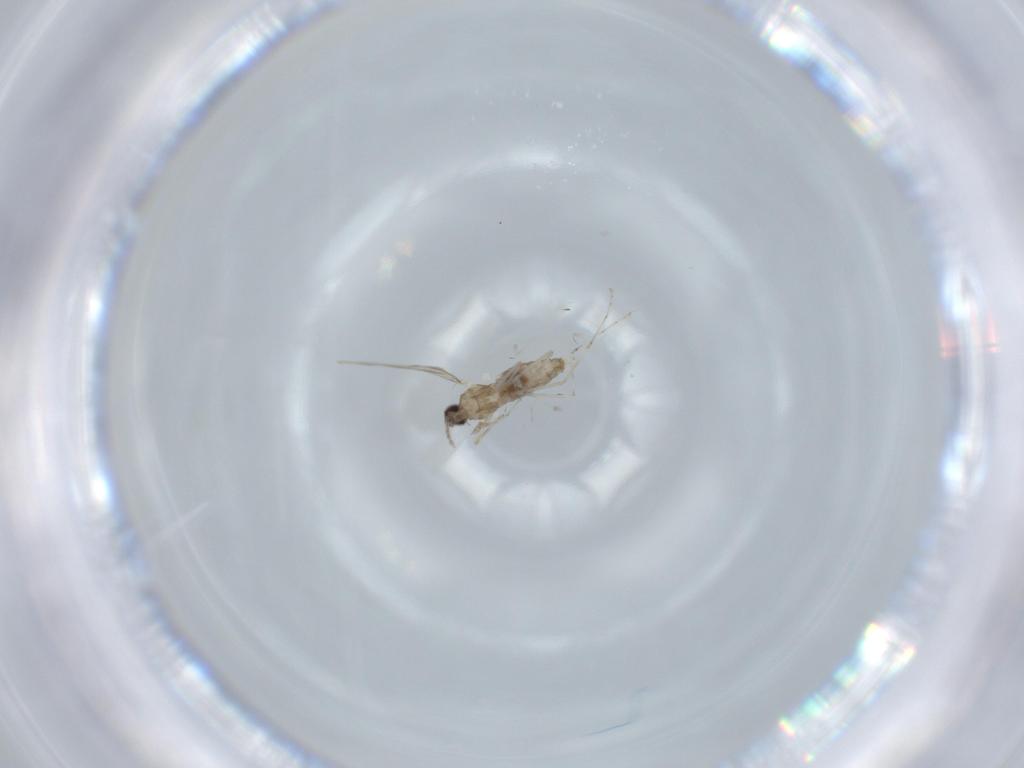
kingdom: Animalia
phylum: Arthropoda
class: Insecta
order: Diptera
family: Cecidomyiidae
